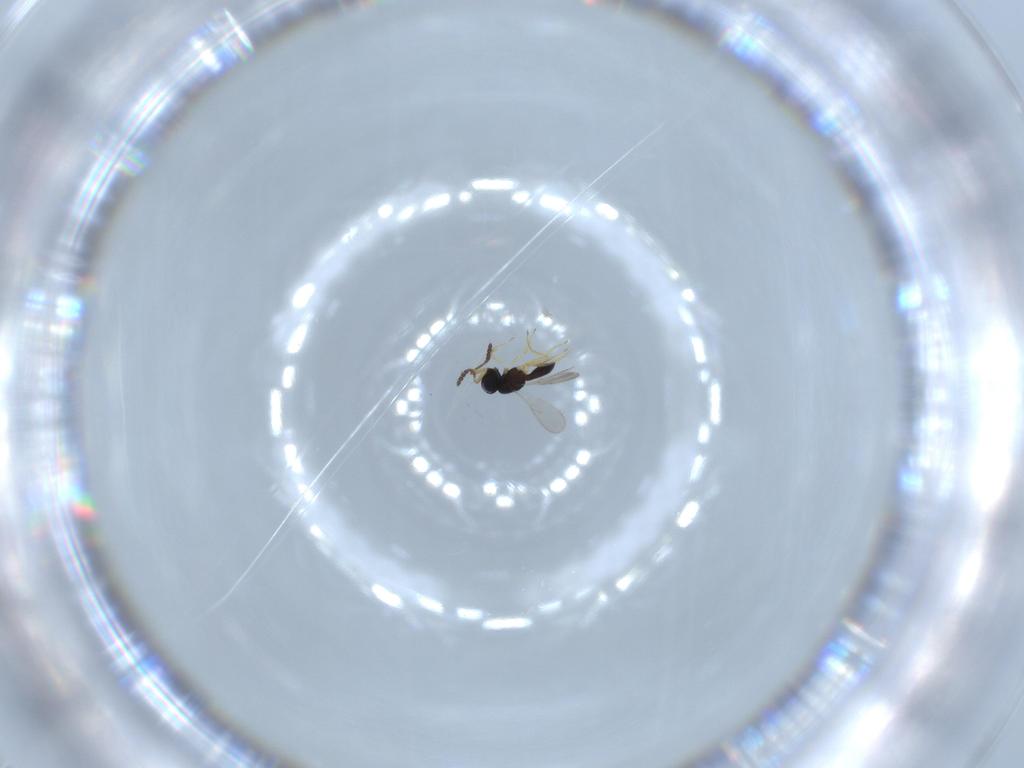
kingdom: Animalia
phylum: Arthropoda
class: Insecta
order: Hymenoptera
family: Scelionidae
